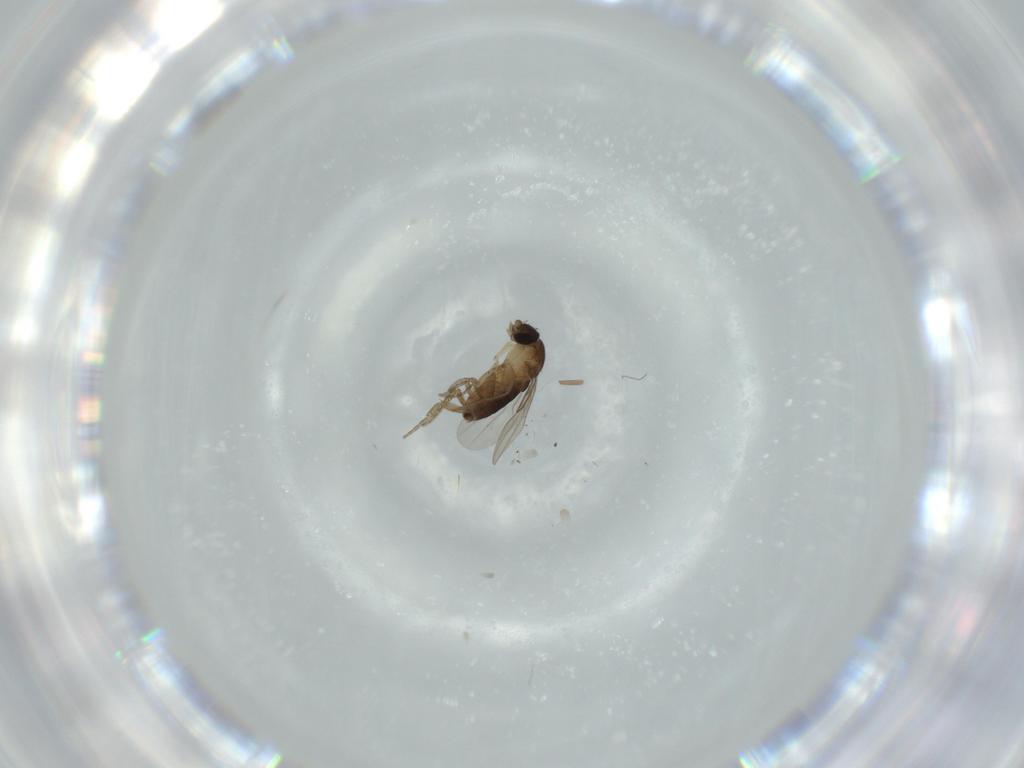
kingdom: Animalia
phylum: Arthropoda
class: Insecta
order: Diptera
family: Phoridae
